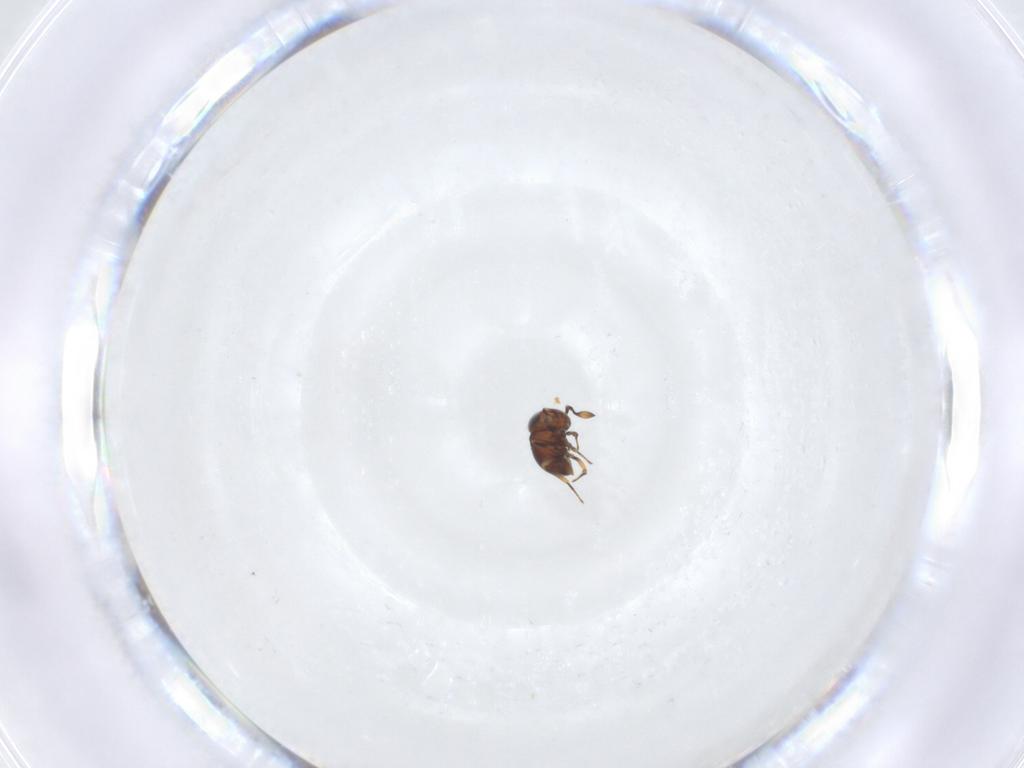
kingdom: Animalia
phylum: Arthropoda
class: Insecta
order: Hymenoptera
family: Scelionidae
